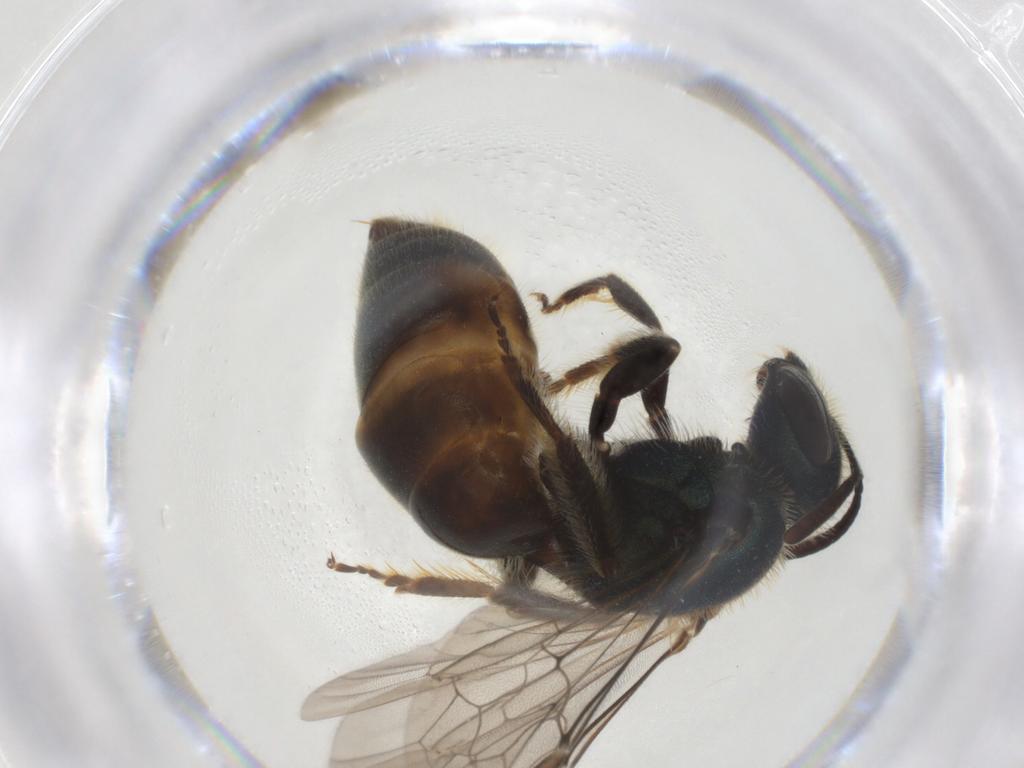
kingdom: Animalia
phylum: Arthropoda
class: Insecta
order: Hymenoptera
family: Halictidae
